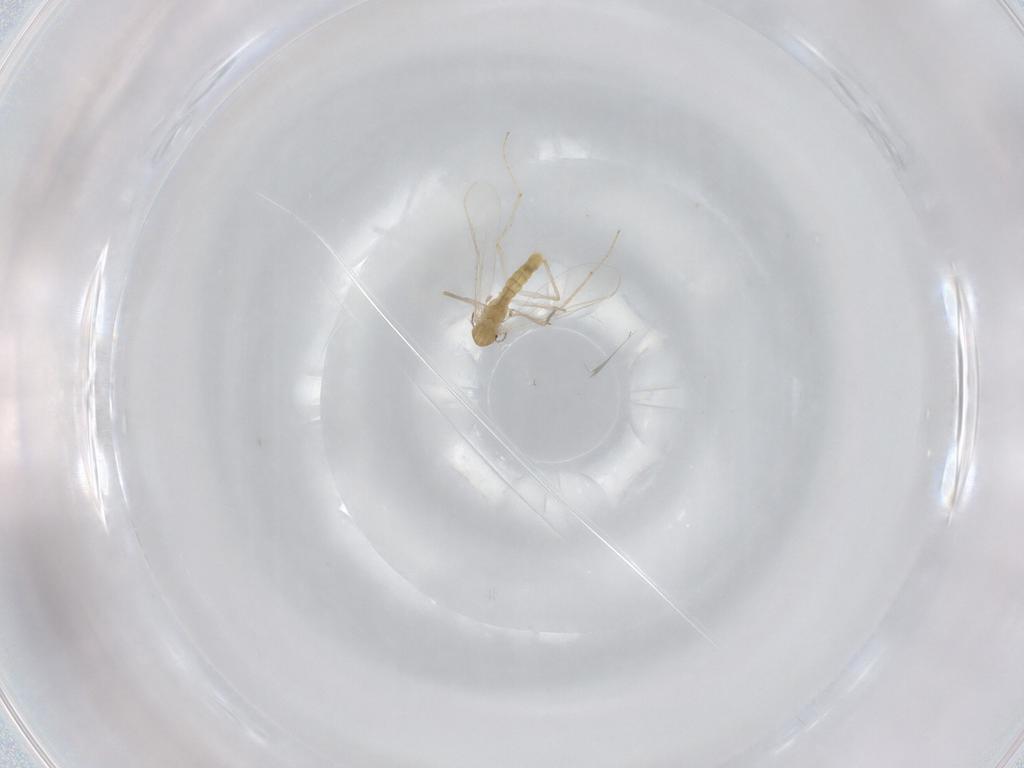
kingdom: Animalia
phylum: Arthropoda
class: Insecta
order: Diptera
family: Chironomidae
